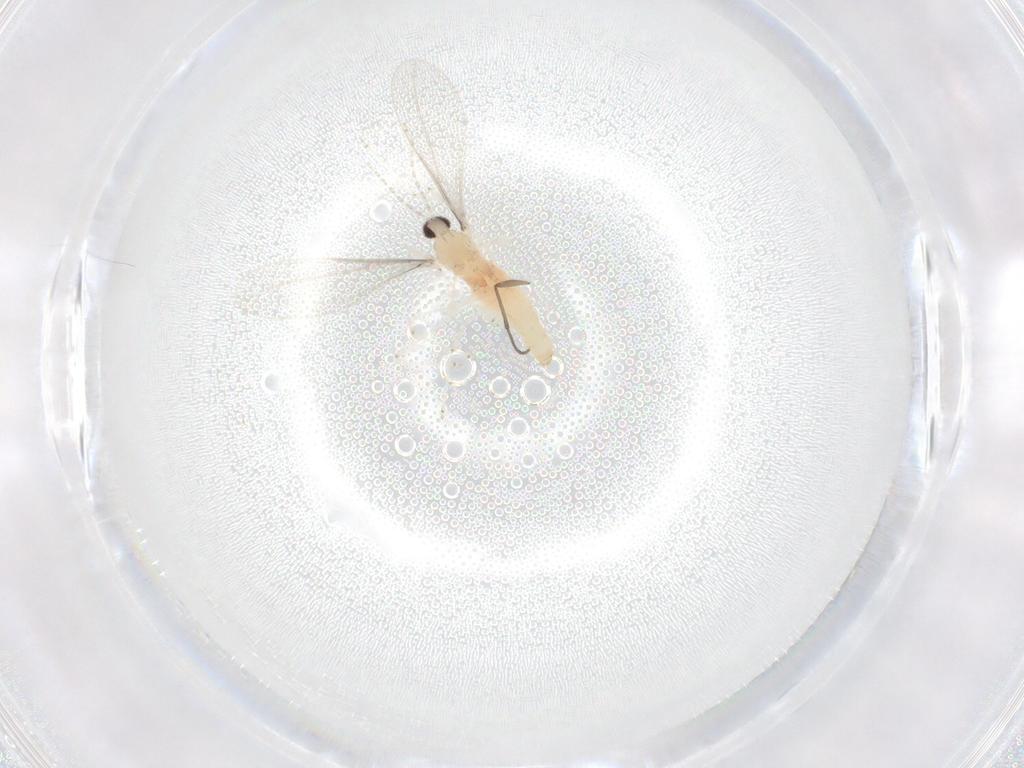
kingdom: Animalia
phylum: Arthropoda
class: Insecta
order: Diptera
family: Cecidomyiidae
